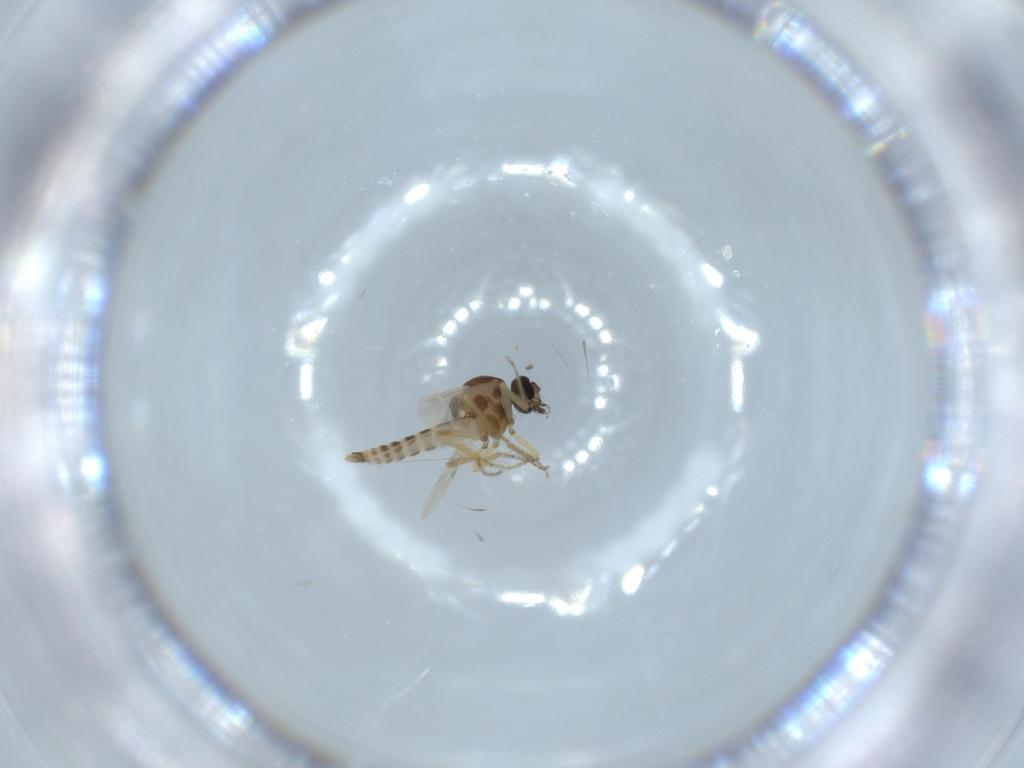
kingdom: Animalia
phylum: Arthropoda
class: Insecta
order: Diptera
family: Ceratopogonidae
